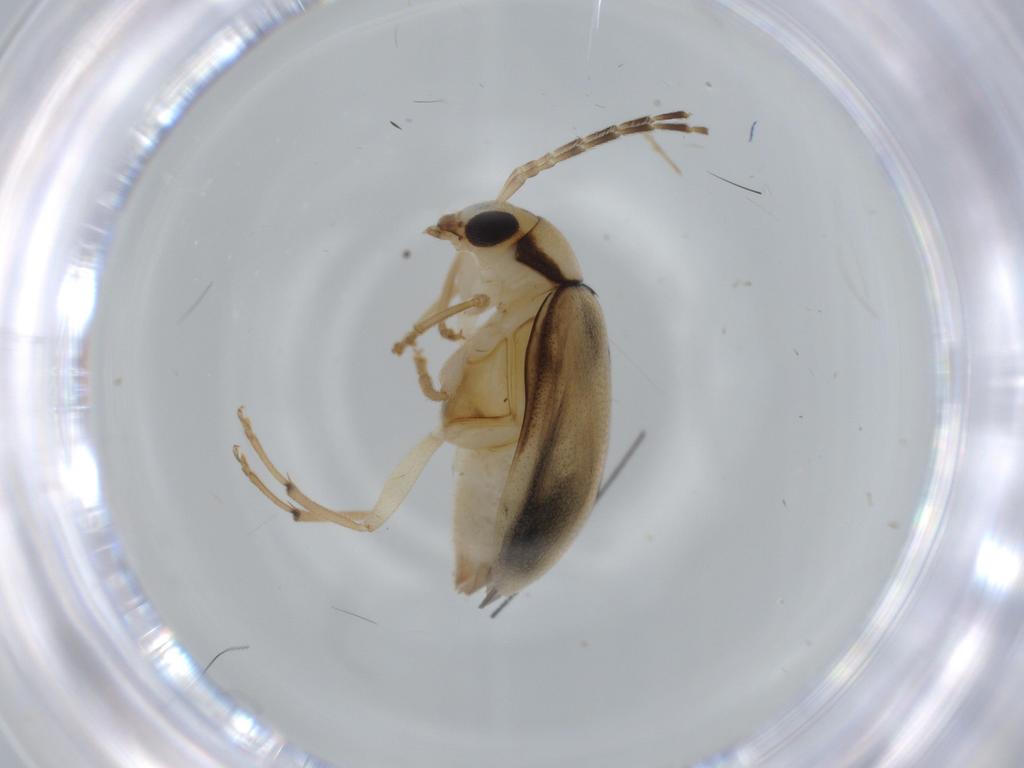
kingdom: Animalia
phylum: Arthropoda
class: Insecta
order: Coleoptera
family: Chrysomelidae
